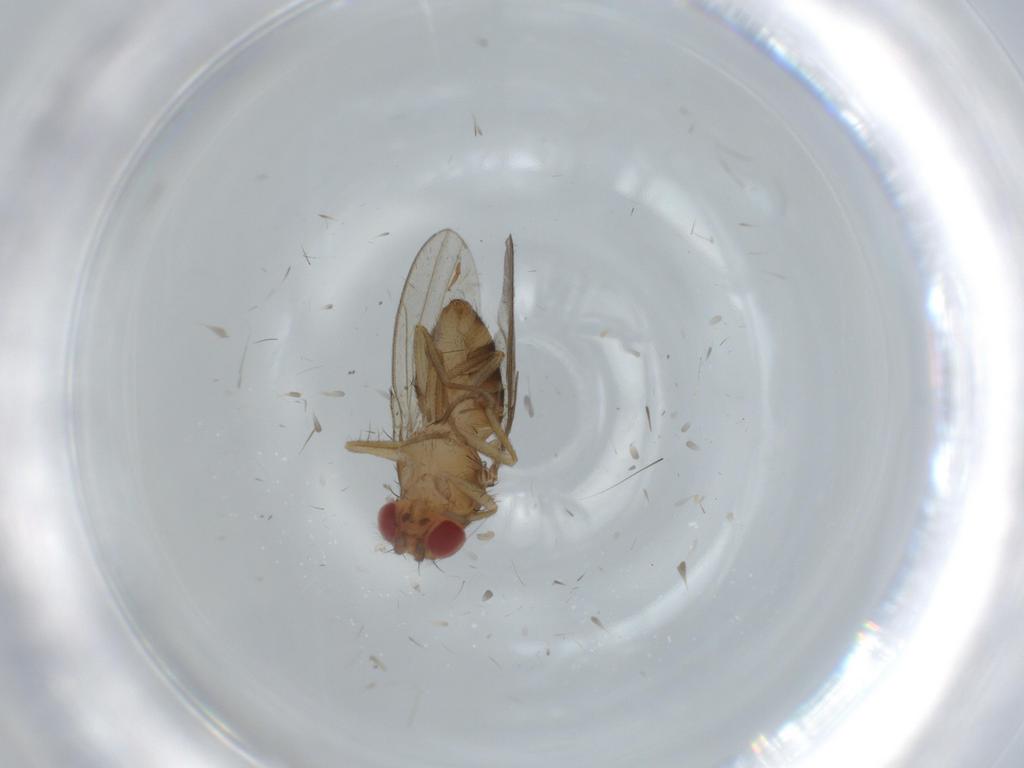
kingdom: Animalia
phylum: Arthropoda
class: Insecta
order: Diptera
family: Drosophilidae
